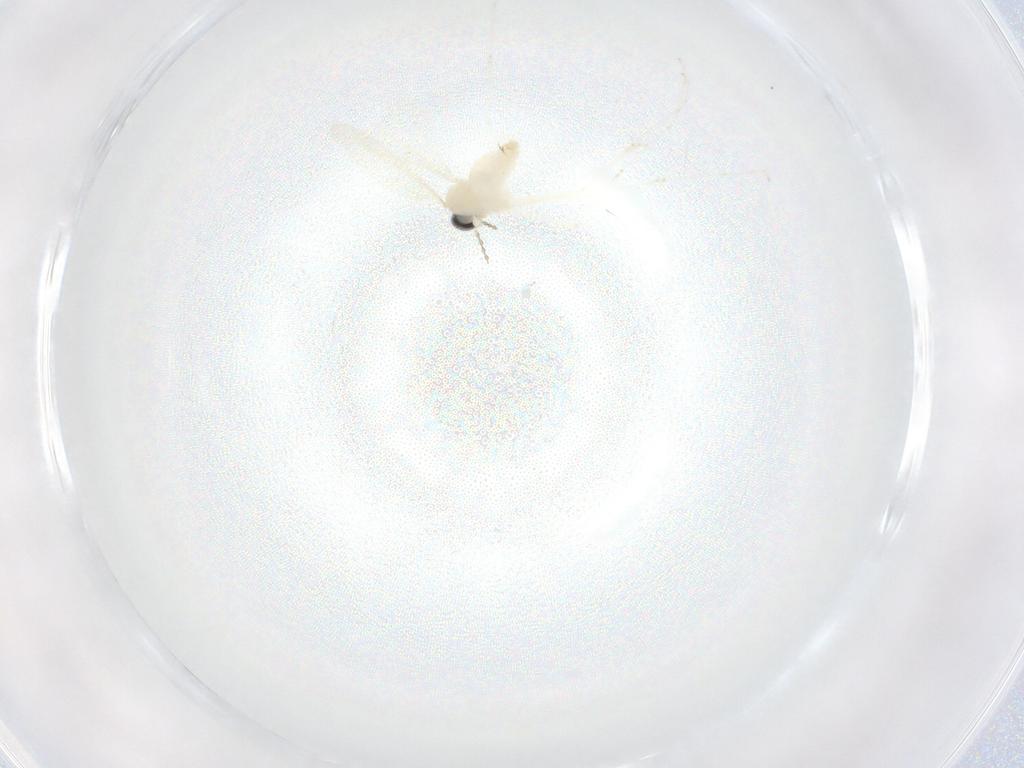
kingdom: Animalia
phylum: Arthropoda
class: Insecta
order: Diptera
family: Cecidomyiidae
